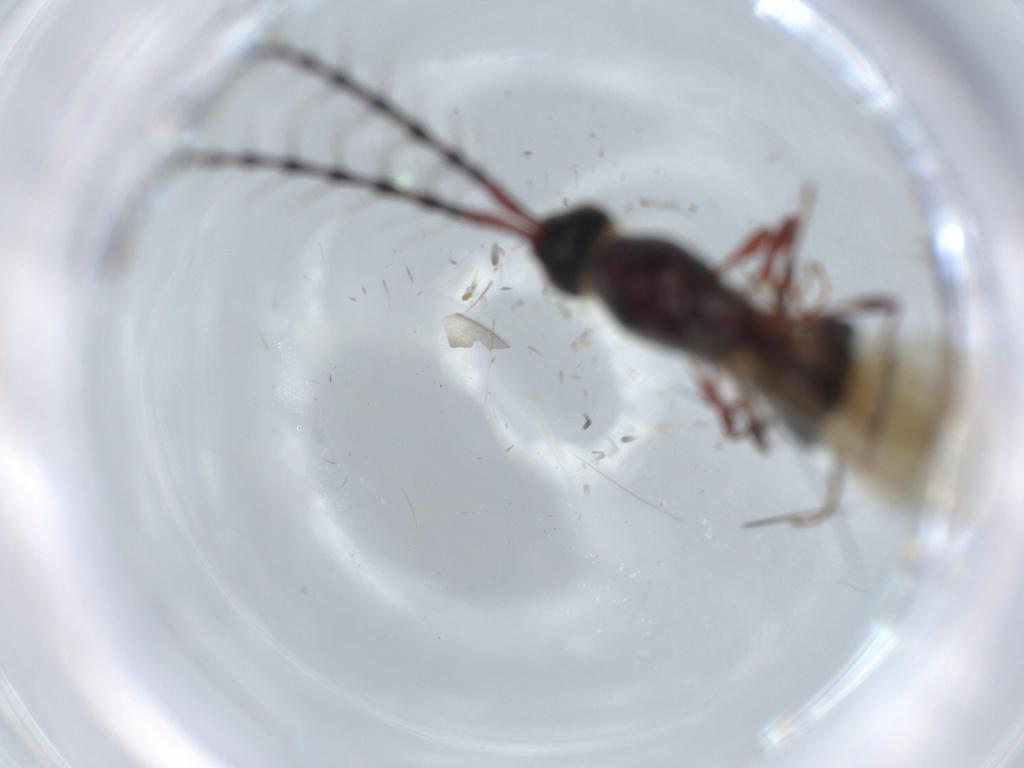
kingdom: Animalia
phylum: Arthropoda
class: Insecta
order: Hymenoptera
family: Diapriidae
